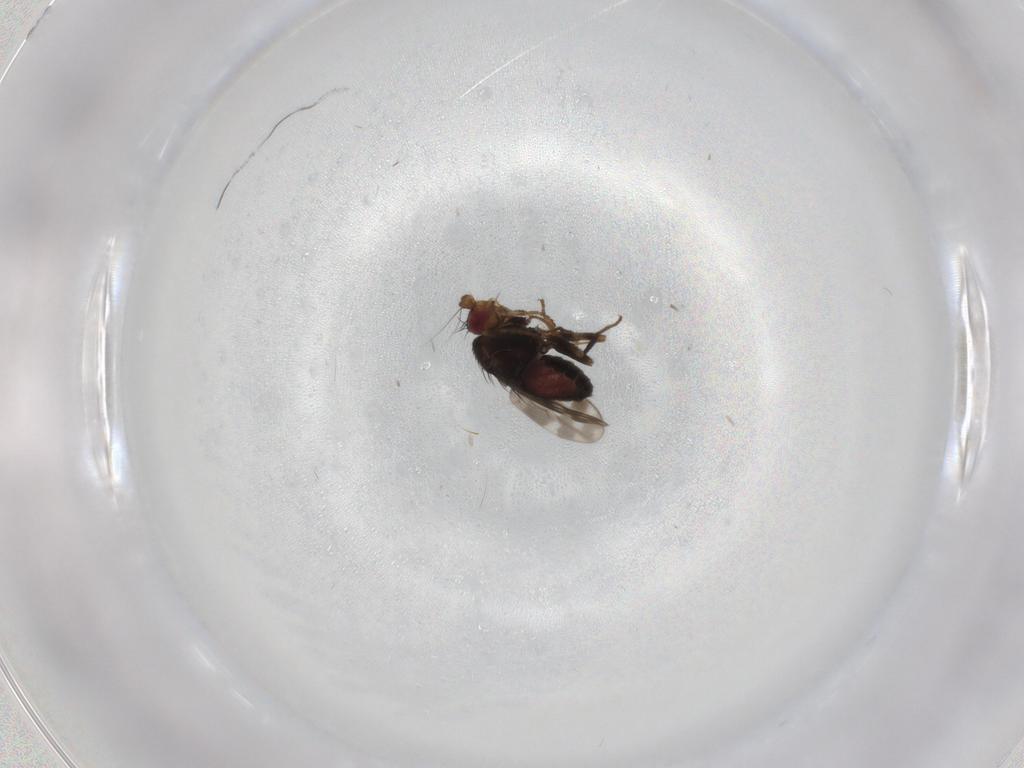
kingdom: Animalia
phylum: Arthropoda
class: Insecta
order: Diptera
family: Sphaeroceridae
